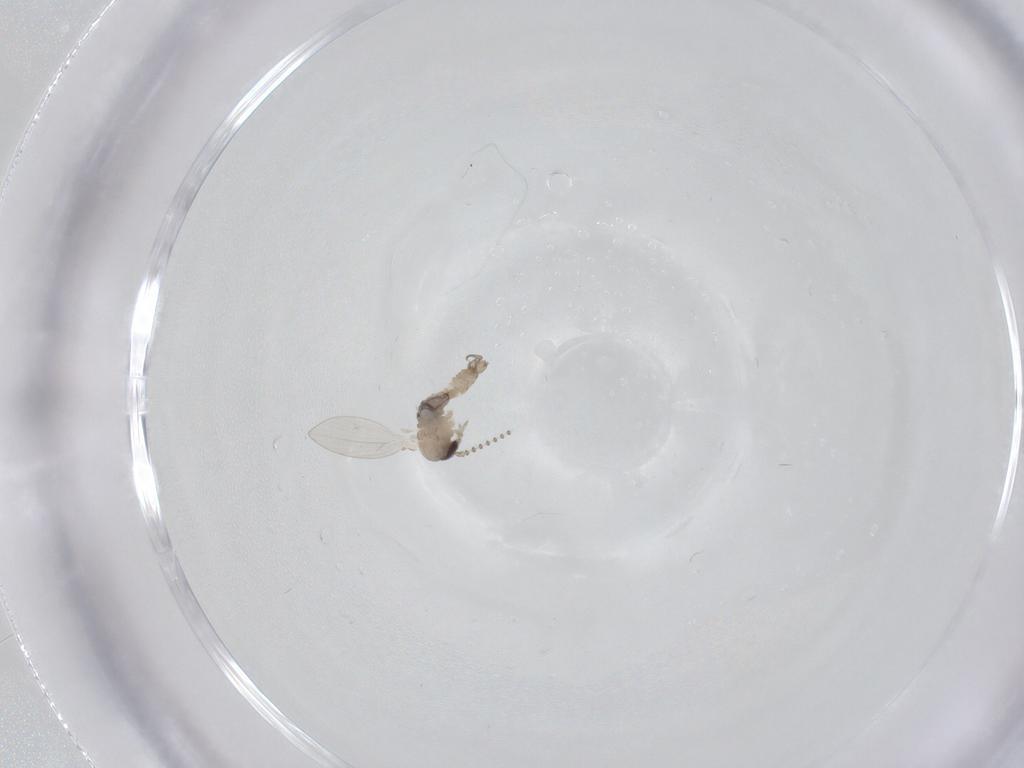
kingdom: Animalia
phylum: Arthropoda
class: Insecta
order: Diptera
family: Psychodidae
